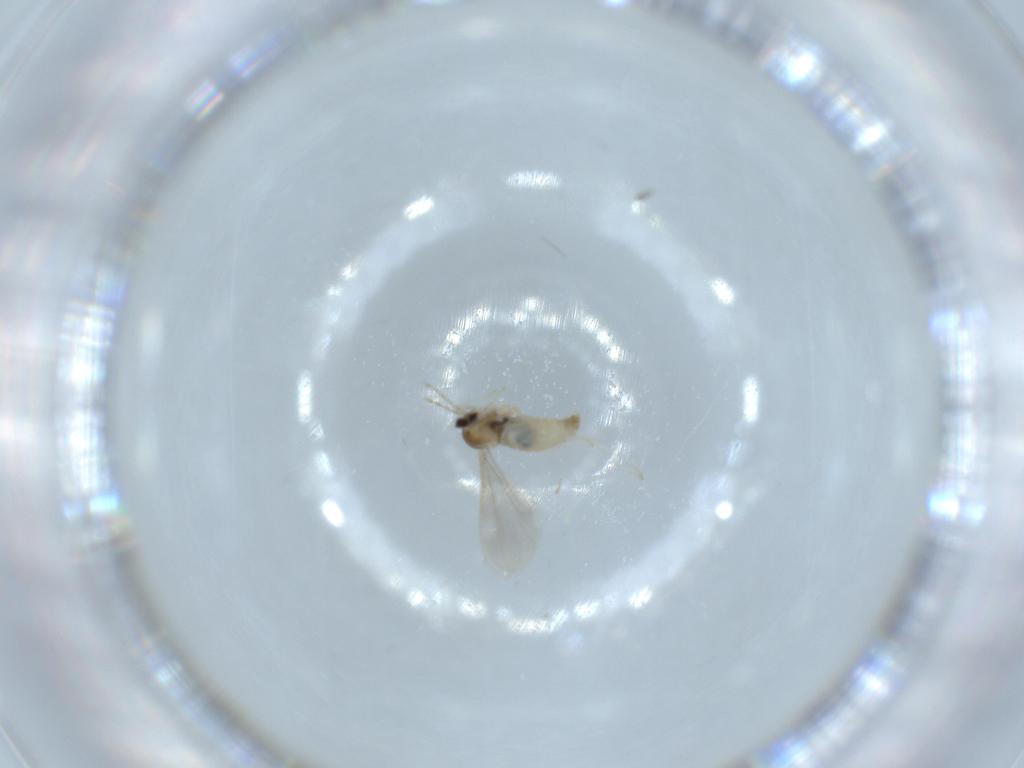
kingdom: Animalia
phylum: Arthropoda
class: Insecta
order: Diptera
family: Cecidomyiidae
